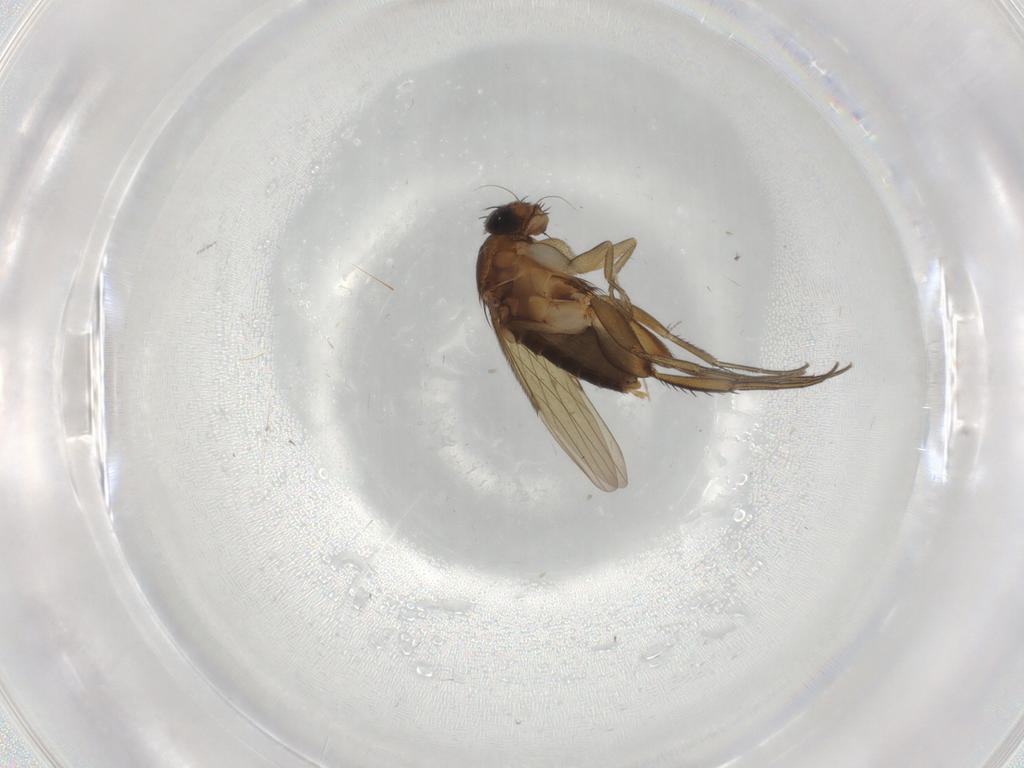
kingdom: Animalia
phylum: Arthropoda
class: Insecta
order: Diptera
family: Phoridae
